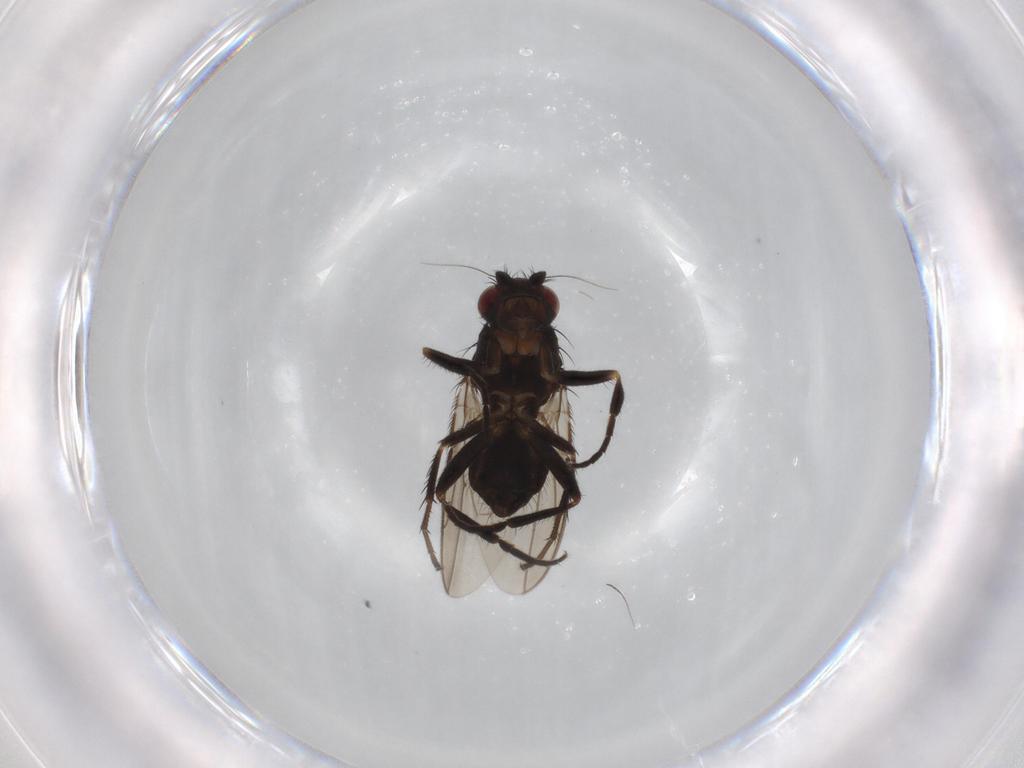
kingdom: Animalia
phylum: Arthropoda
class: Insecta
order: Diptera
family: Sphaeroceridae
